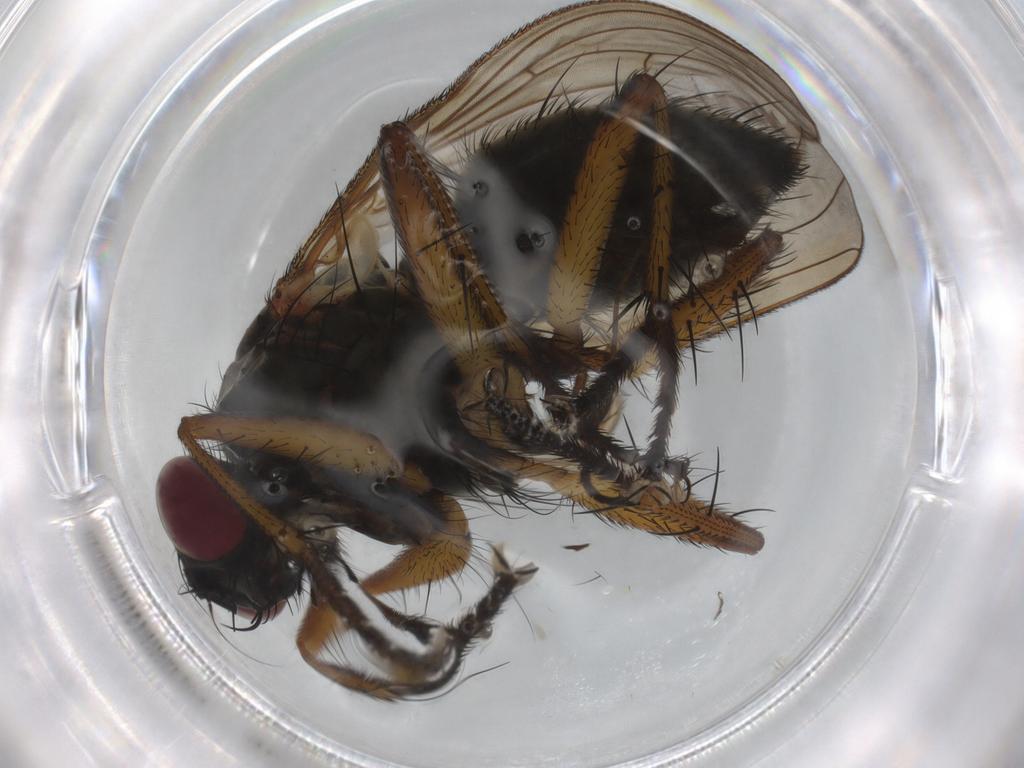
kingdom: Animalia
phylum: Arthropoda
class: Insecta
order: Diptera
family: Muscidae
